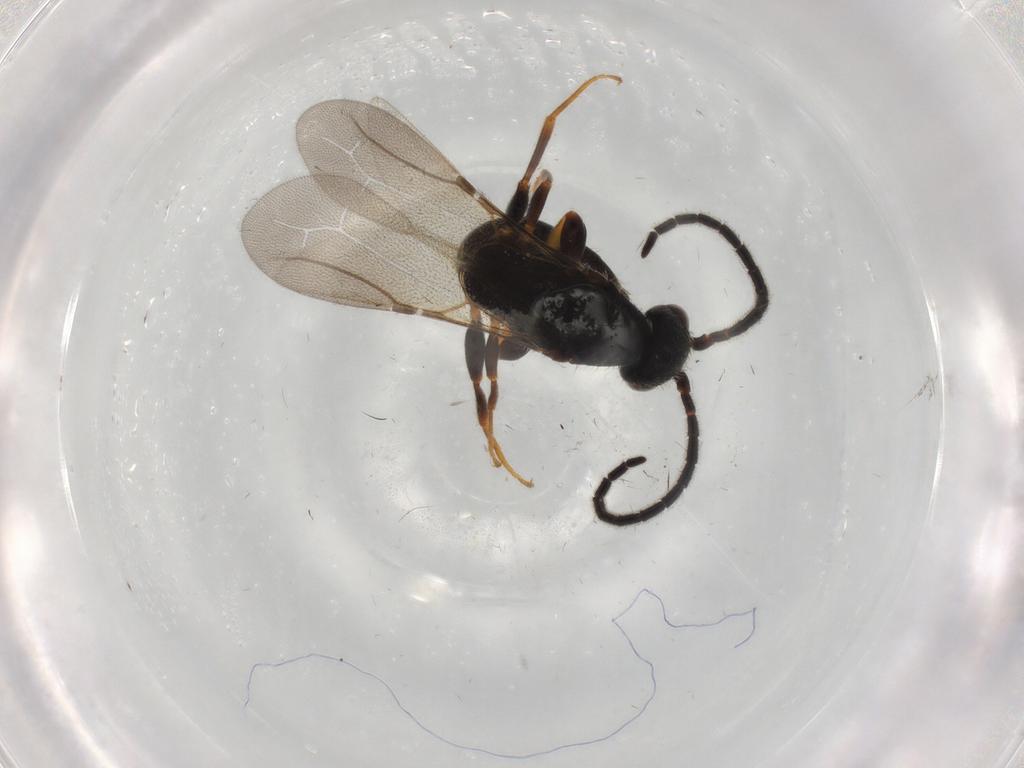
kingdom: Animalia
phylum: Arthropoda
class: Insecta
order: Hymenoptera
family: Bethylidae
